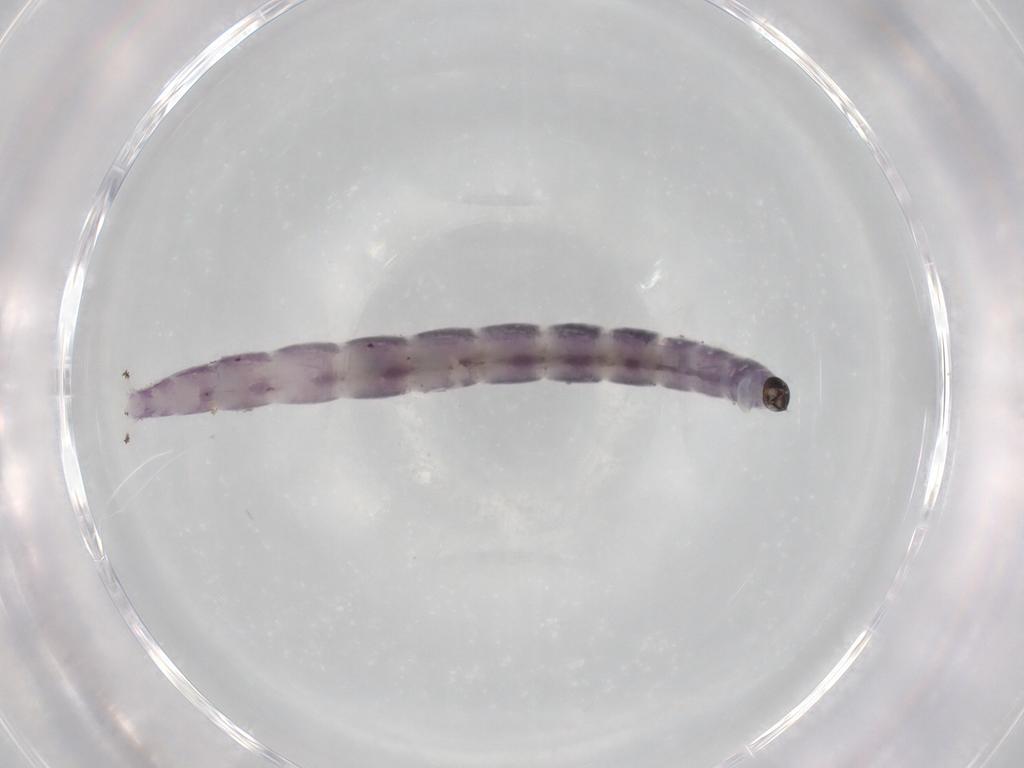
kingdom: Animalia
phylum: Arthropoda
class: Insecta
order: Diptera
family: Chironomidae
